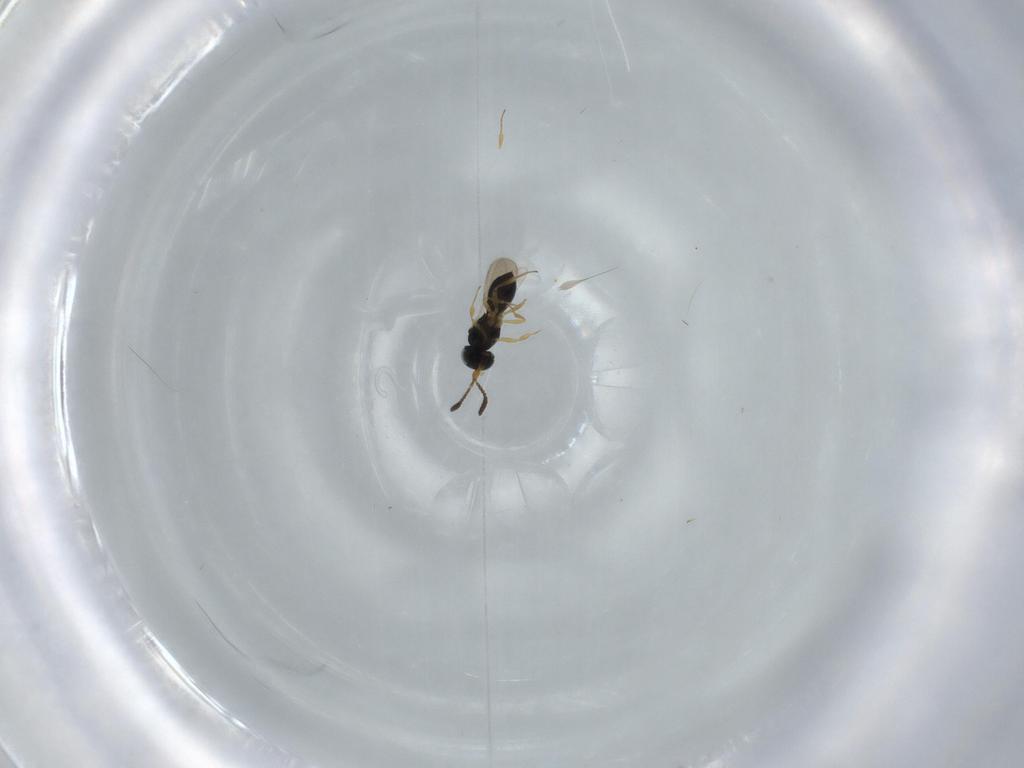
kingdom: Animalia
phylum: Arthropoda
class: Insecta
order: Hymenoptera
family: Scelionidae
